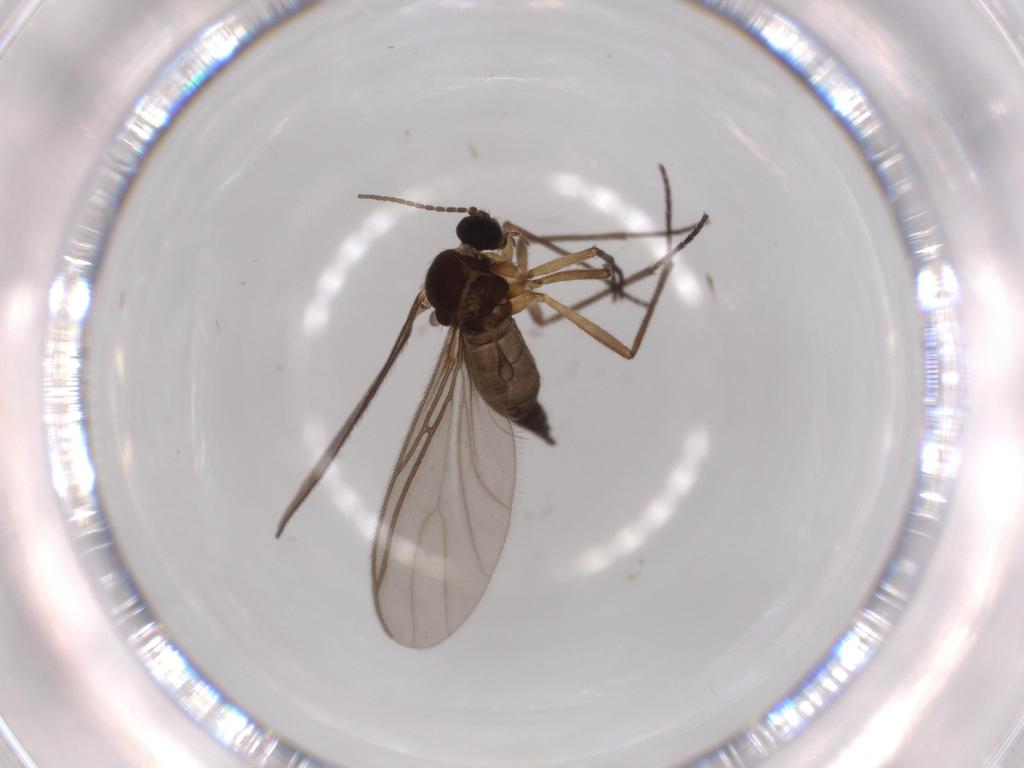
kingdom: Animalia
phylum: Arthropoda
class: Insecta
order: Diptera
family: Sciaridae
